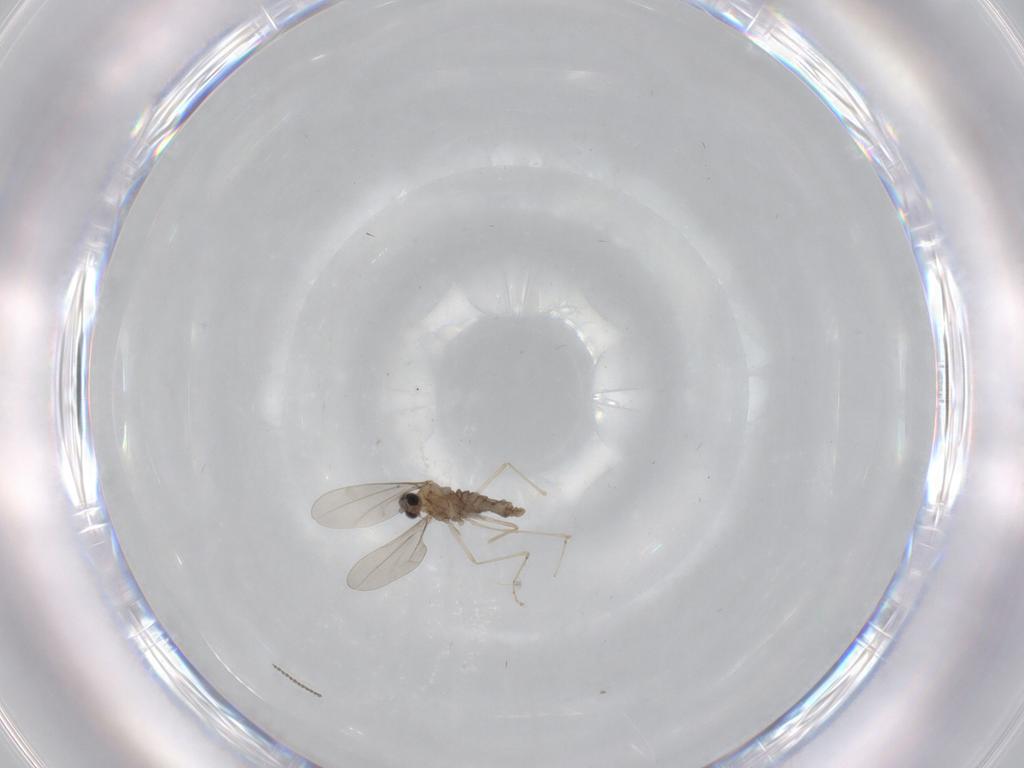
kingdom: Animalia
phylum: Arthropoda
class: Insecta
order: Diptera
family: Cecidomyiidae
